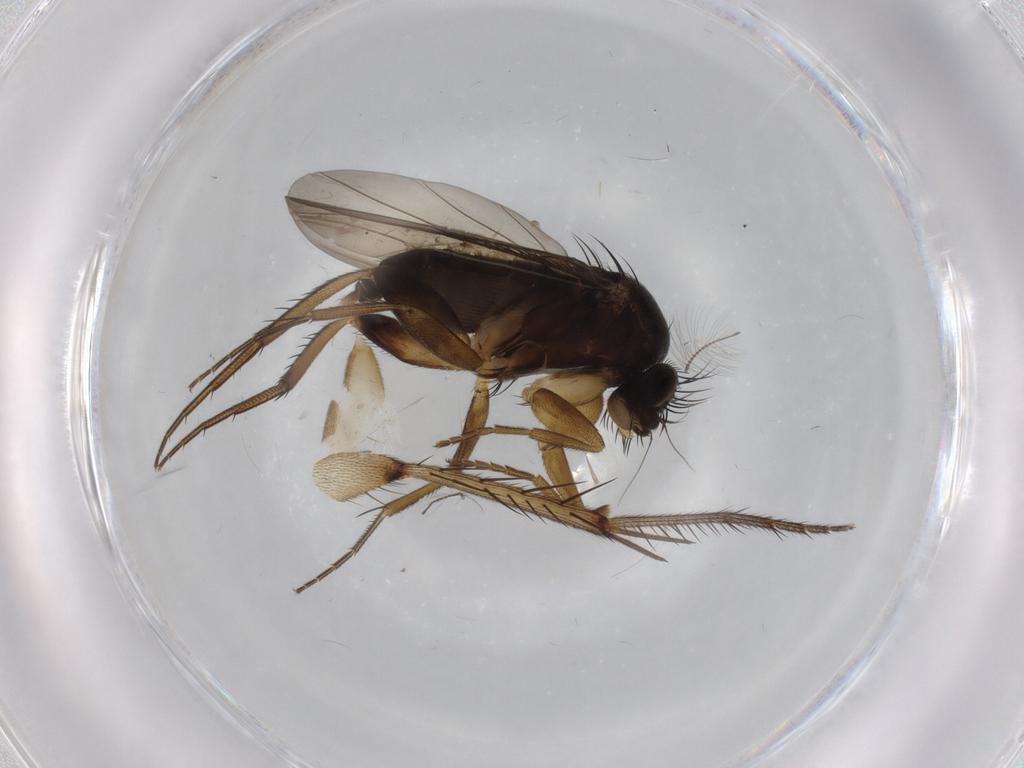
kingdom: Animalia
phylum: Arthropoda
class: Insecta
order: Diptera
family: Phoridae
